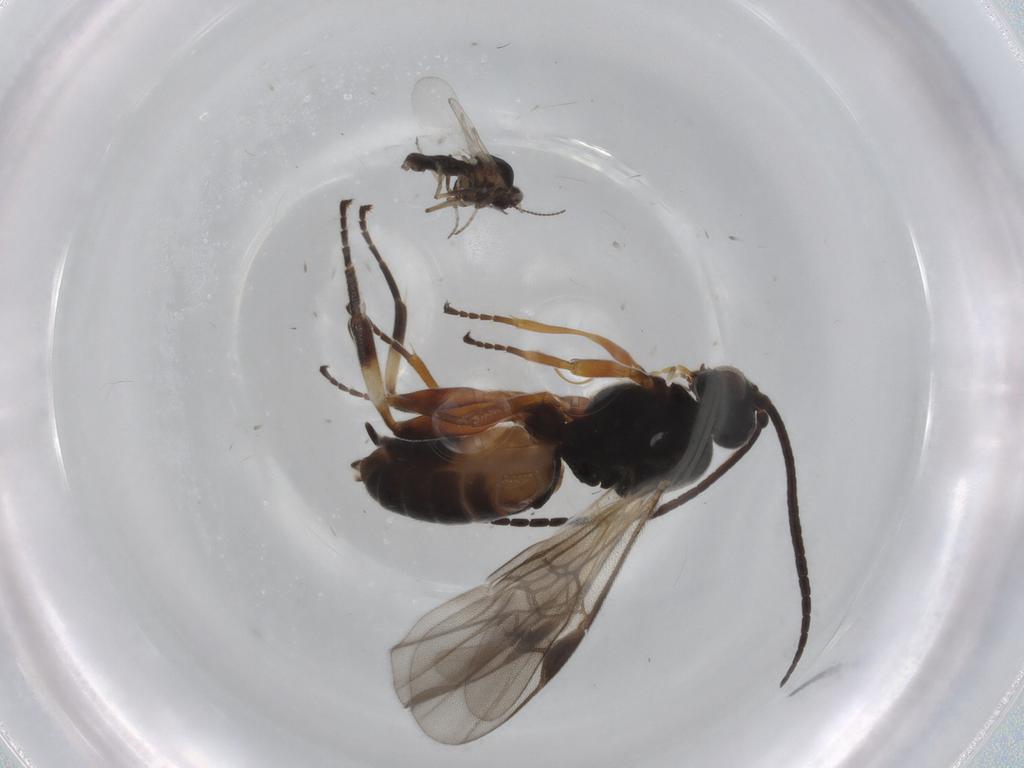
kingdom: Animalia
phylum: Arthropoda
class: Insecta
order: Hymenoptera
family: Braconidae
